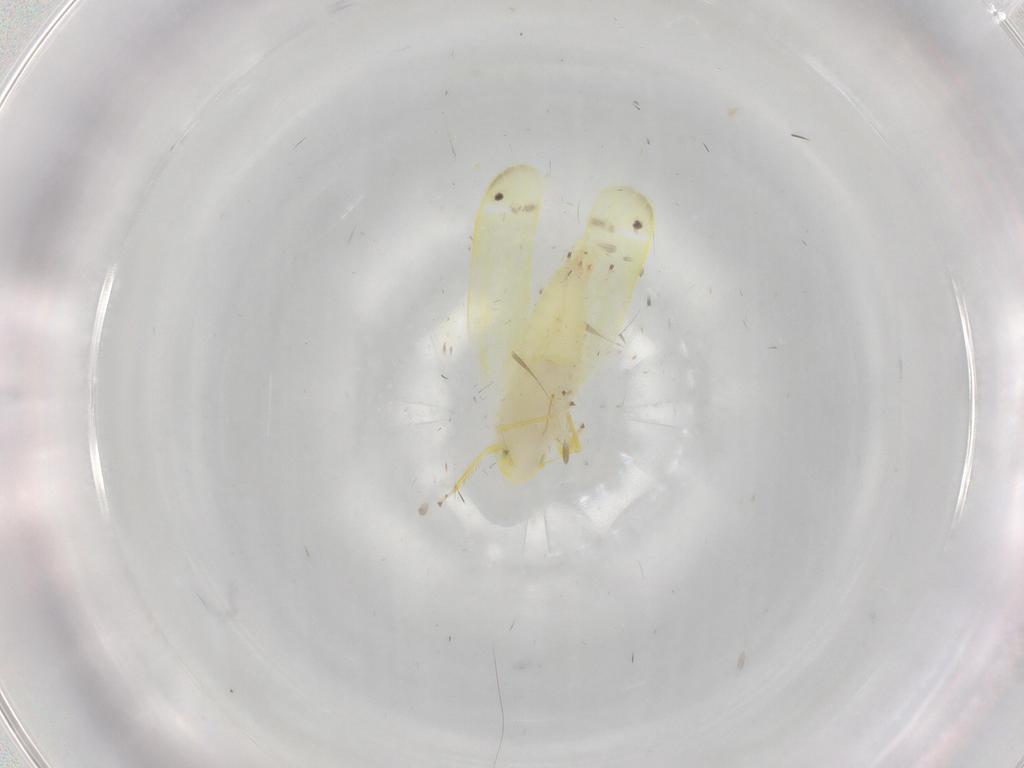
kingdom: Animalia
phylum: Arthropoda
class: Insecta
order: Hemiptera
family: Cicadellidae
